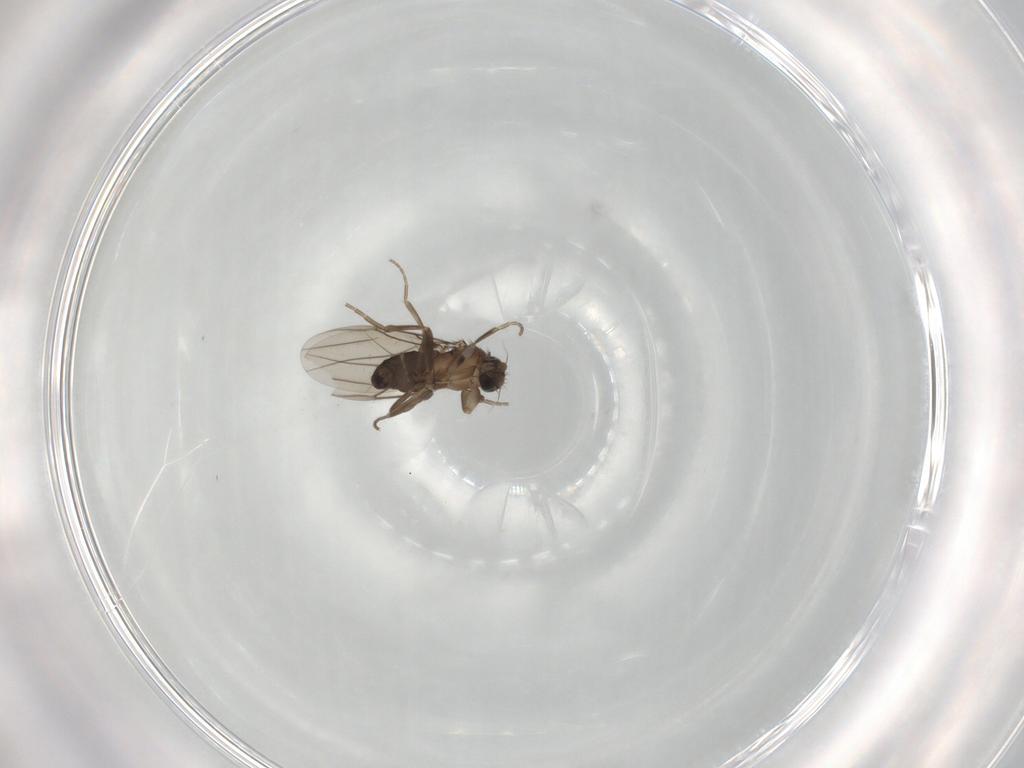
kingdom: Animalia
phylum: Arthropoda
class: Insecta
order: Diptera
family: Phoridae
